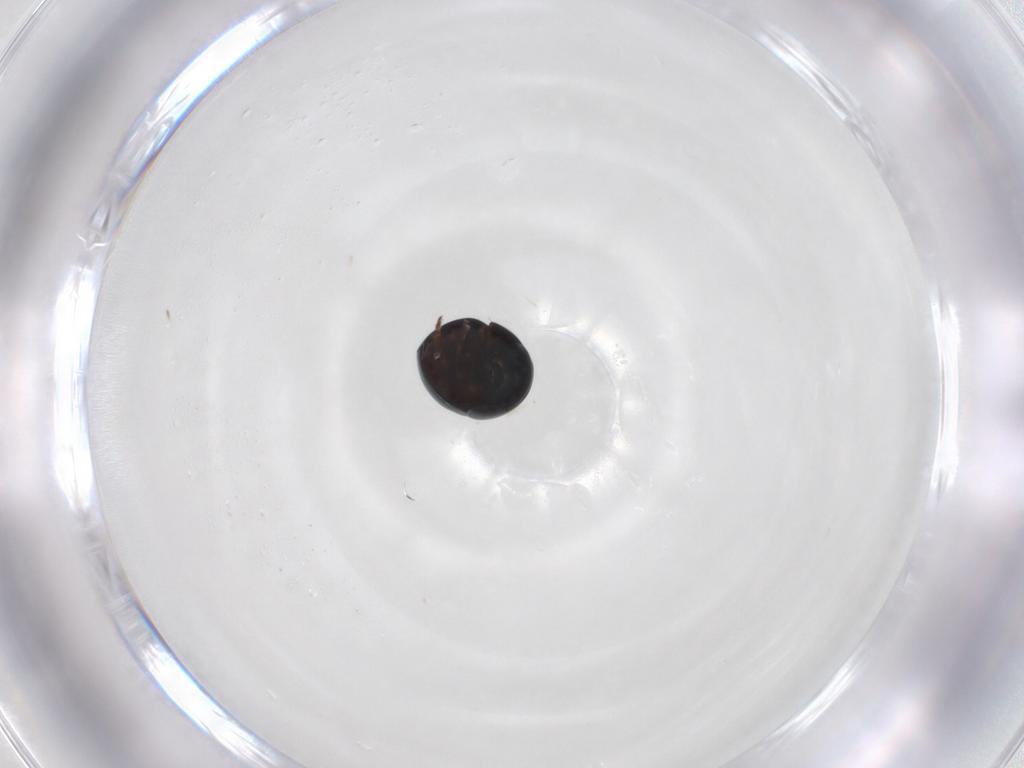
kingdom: Animalia
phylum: Arthropoda
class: Insecta
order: Coleoptera
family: Cybocephalidae
